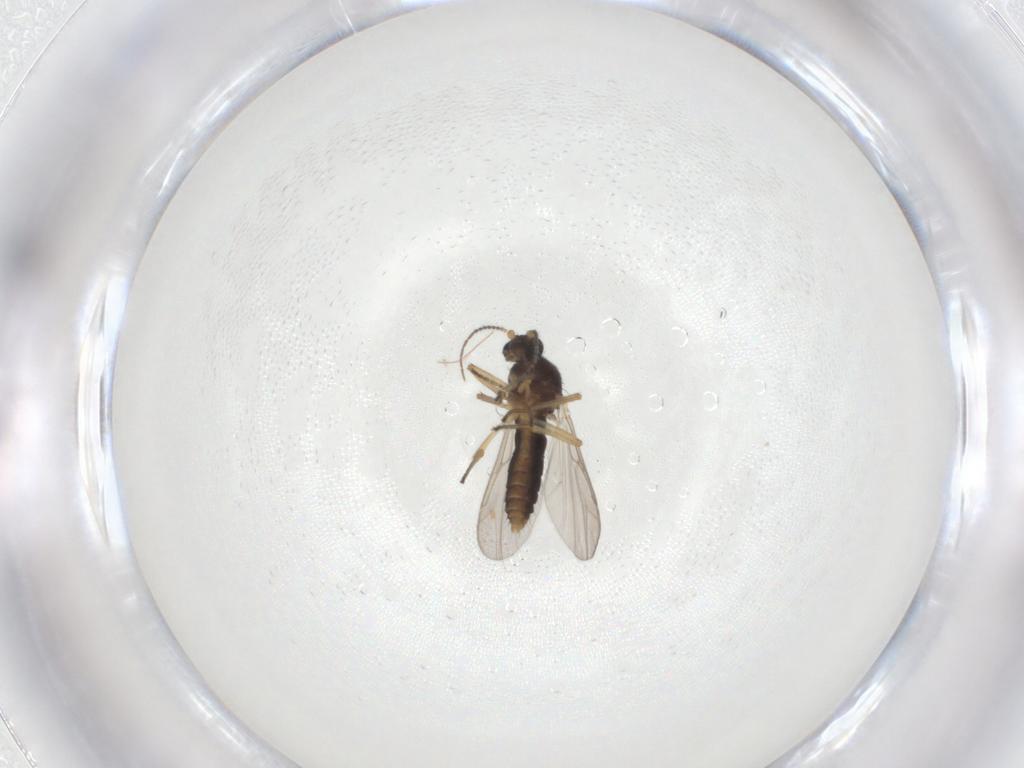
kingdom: Animalia
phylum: Arthropoda
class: Insecta
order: Diptera
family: Ceratopogonidae
